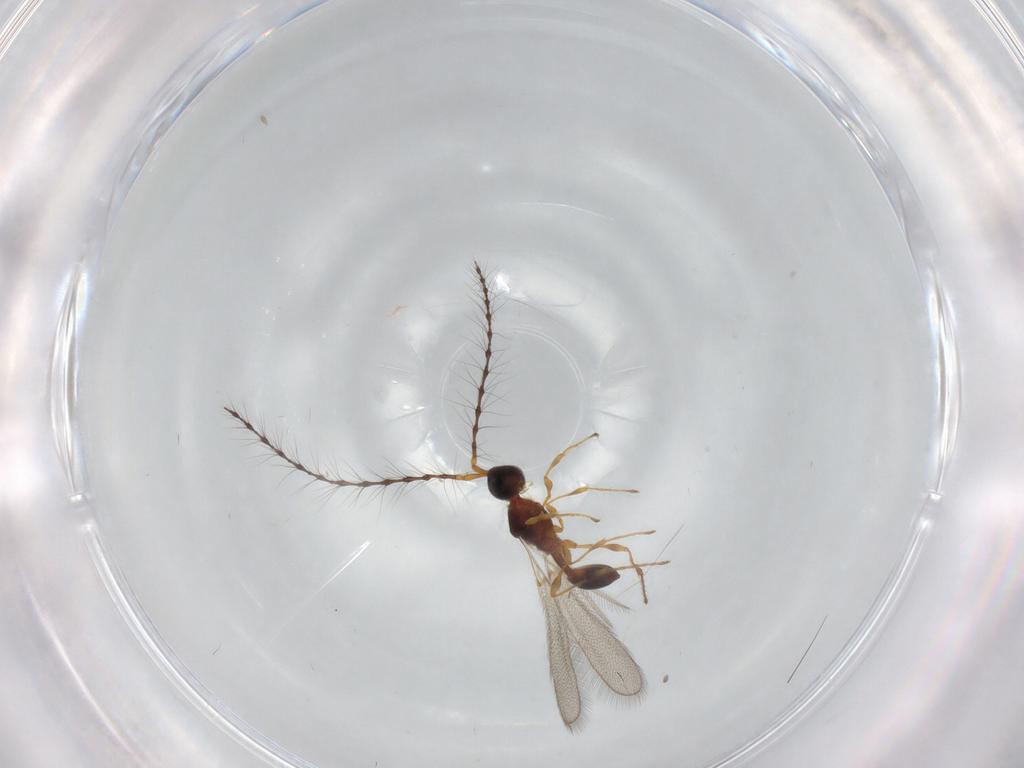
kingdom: Animalia
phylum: Arthropoda
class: Insecta
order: Hymenoptera
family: Diapriidae
